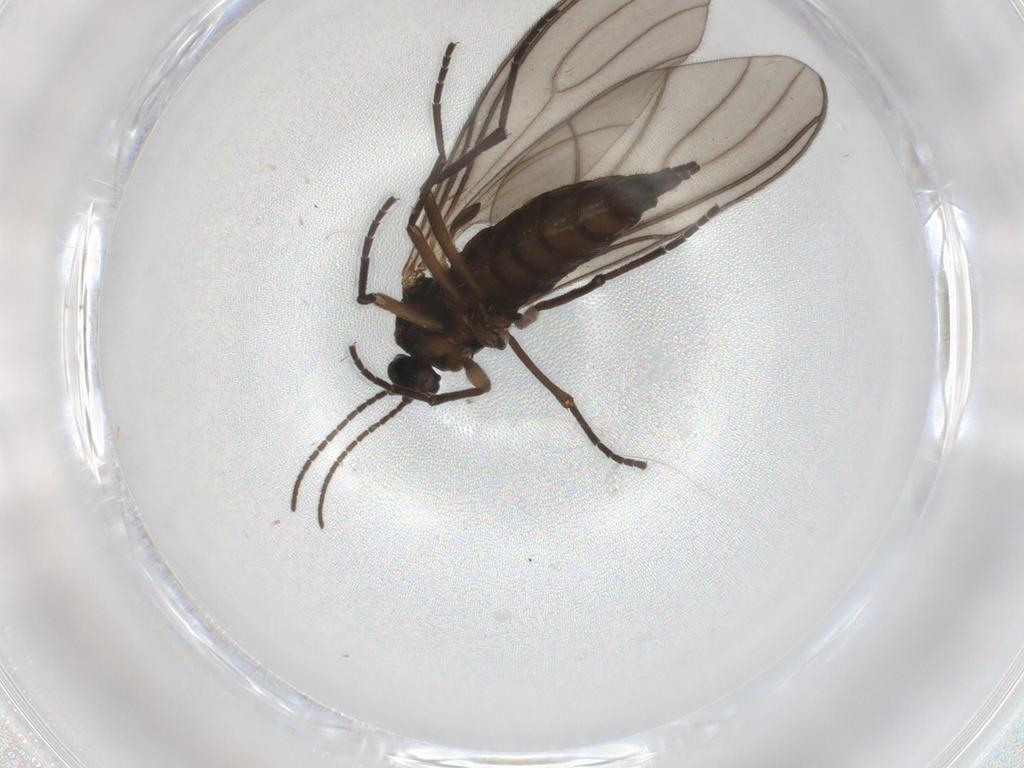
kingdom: Animalia
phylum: Arthropoda
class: Insecta
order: Diptera
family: Sciaridae
